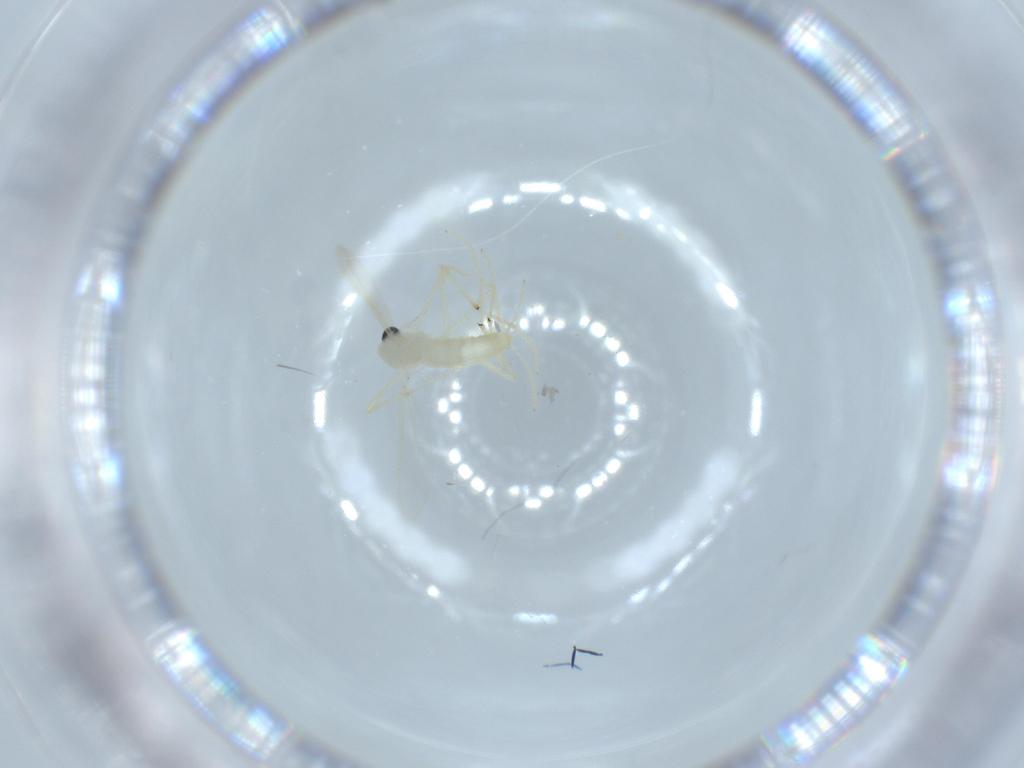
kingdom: Animalia
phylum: Arthropoda
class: Insecta
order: Diptera
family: Chironomidae
